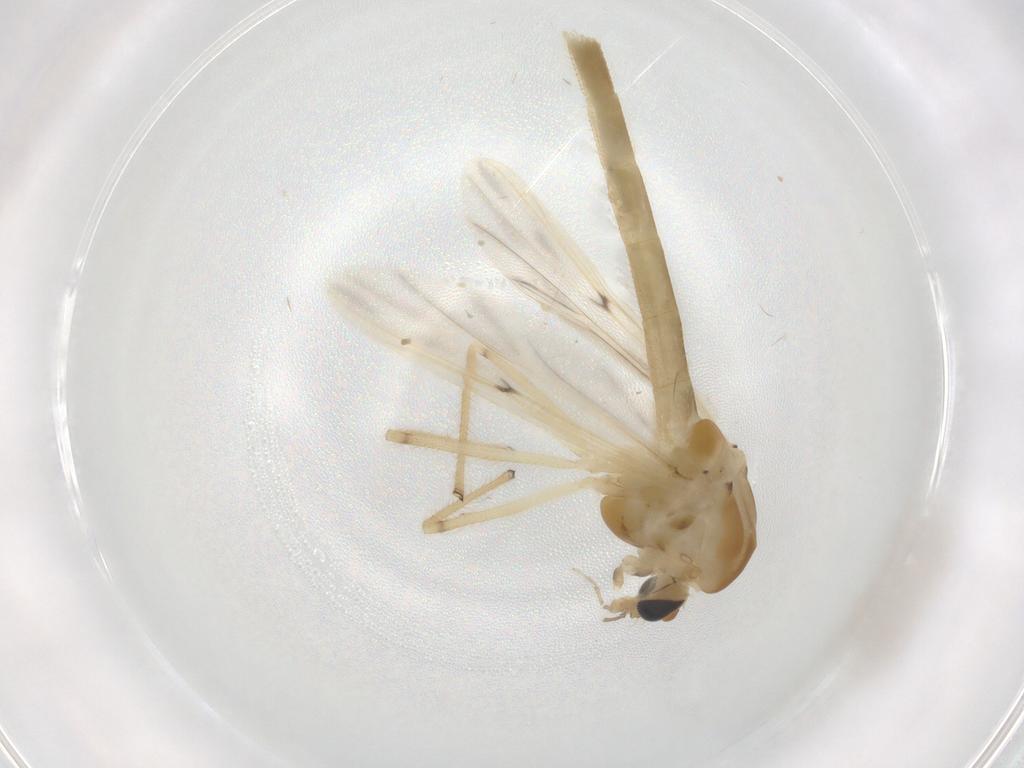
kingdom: Animalia
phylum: Arthropoda
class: Insecta
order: Diptera
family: Chironomidae
